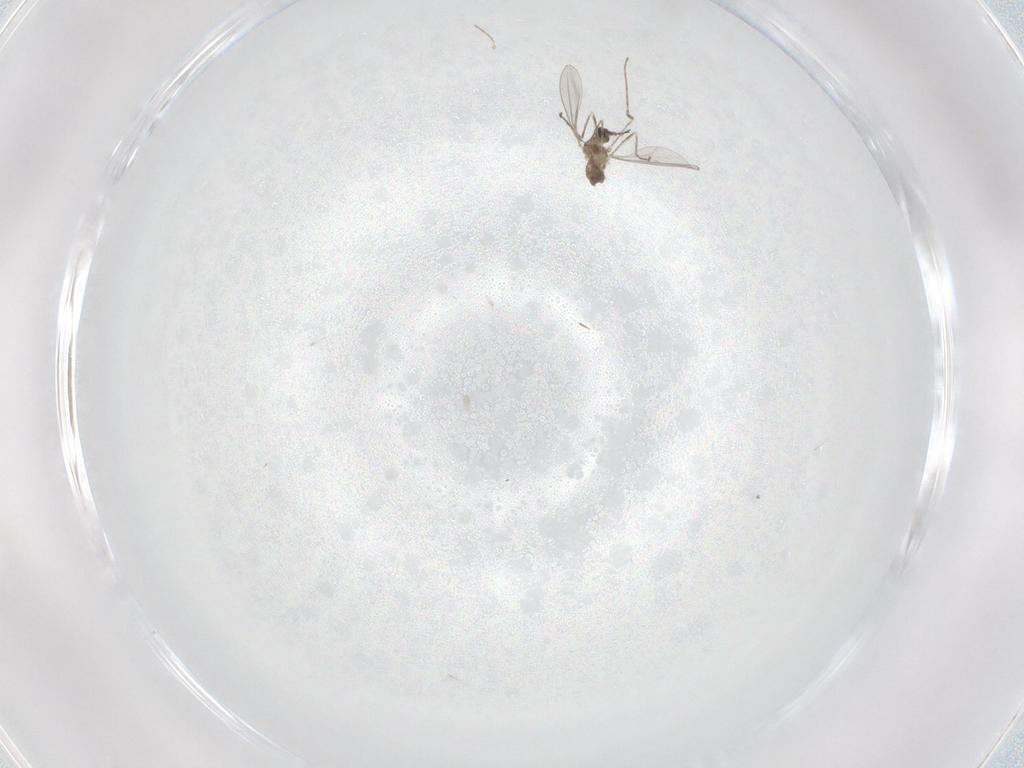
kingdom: Animalia
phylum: Arthropoda
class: Insecta
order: Diptera
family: Cecidomyiidae
